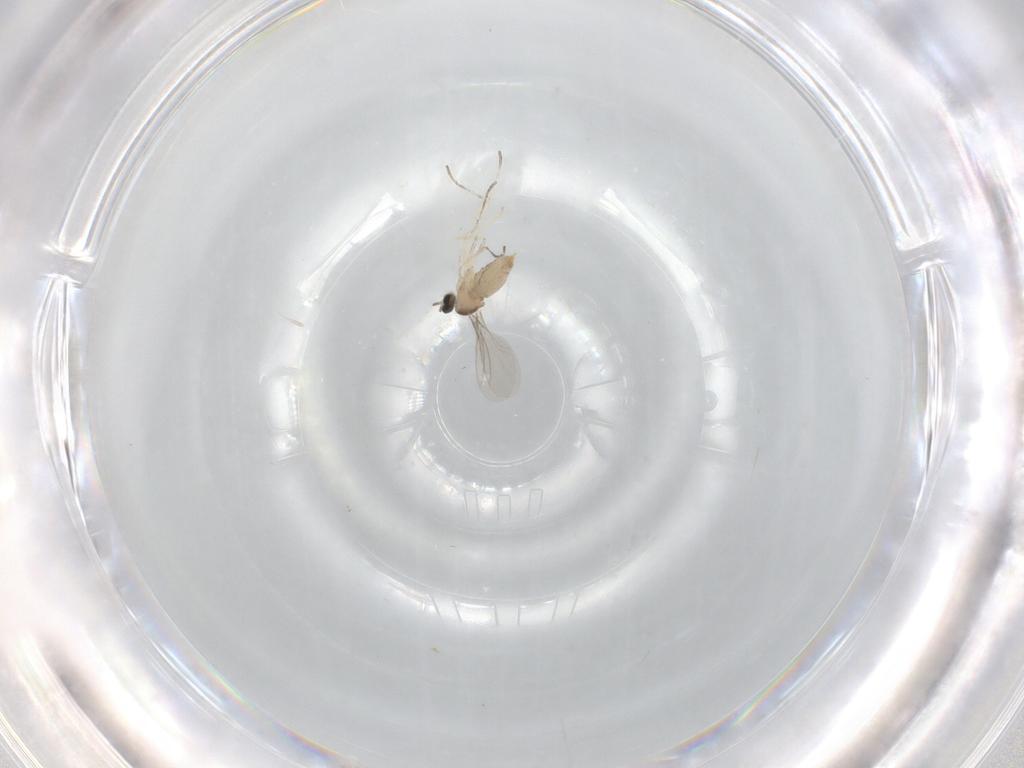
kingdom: Animalia
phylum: Arthropoda
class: Insecta
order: Diptera
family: Cecidomyiidae
